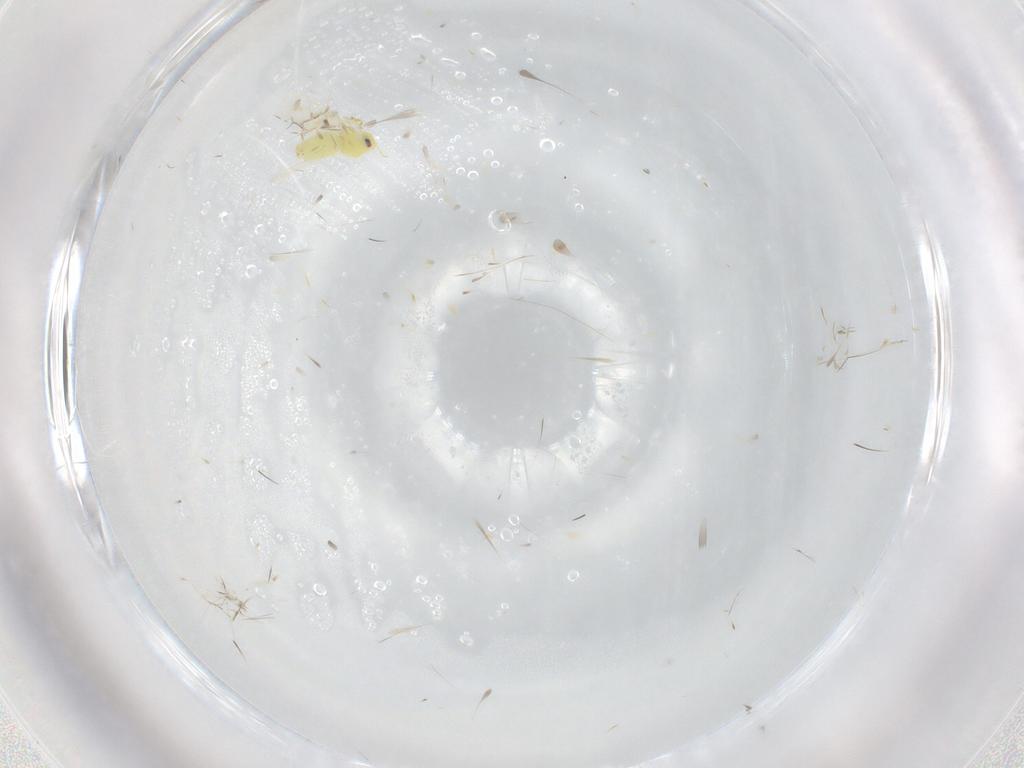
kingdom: Animalia
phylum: Arthropoda
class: Insecta
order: Hemiptera
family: Aleyrodidae
